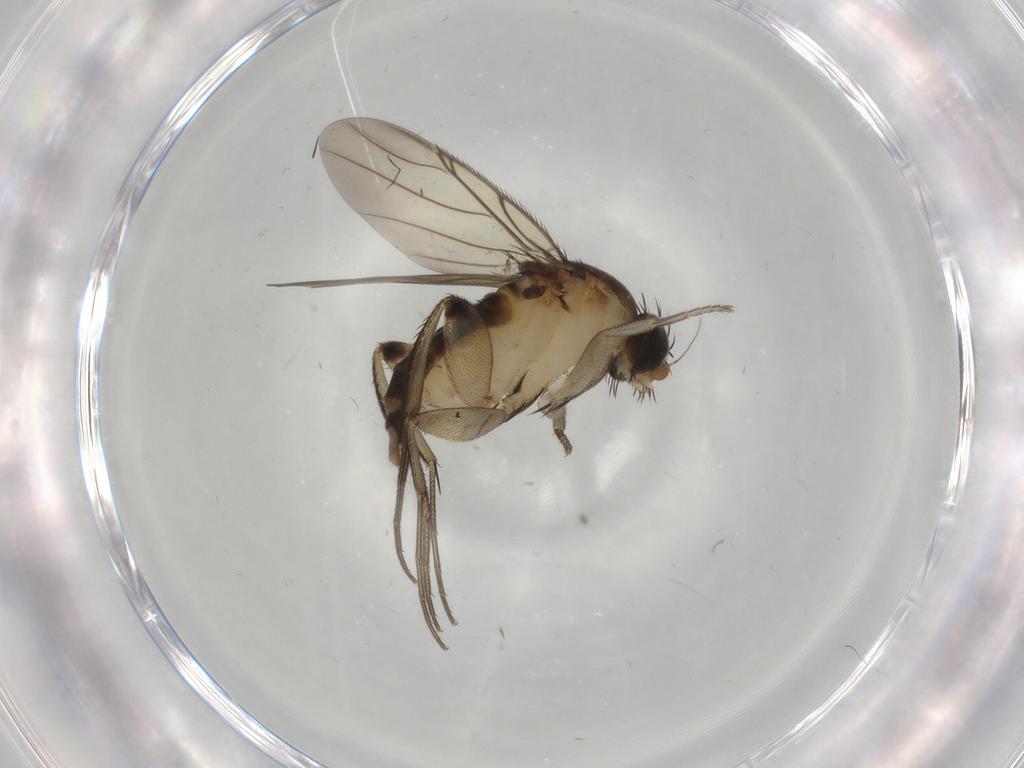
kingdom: Animalia
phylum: Arthropoda
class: Insecta
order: Diptera
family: Phoridae
